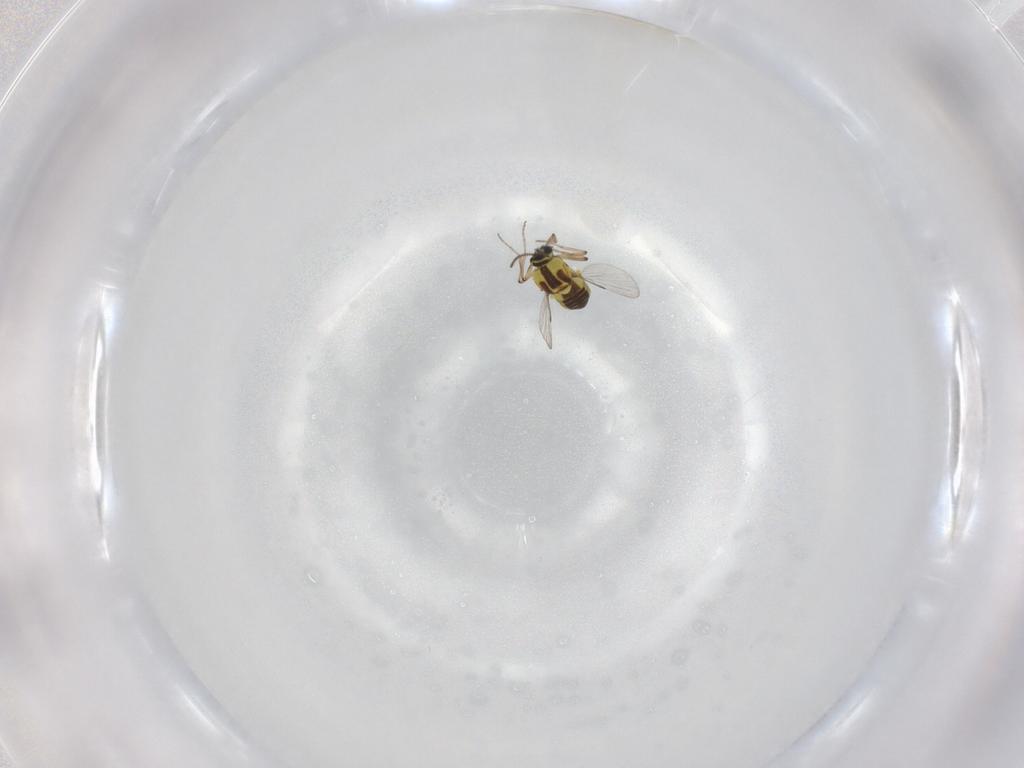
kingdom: Animalia
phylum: Arthropoda
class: Insecta
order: Diptera
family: Ceratopogonidae
